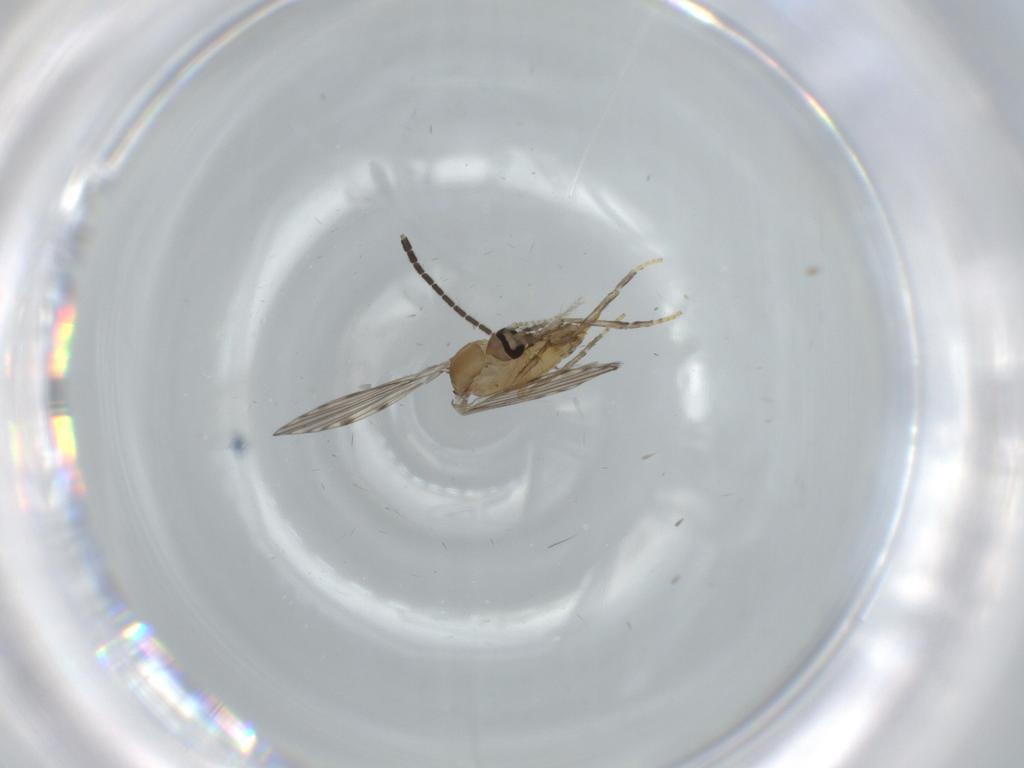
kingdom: Animalia
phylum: Arthropoda
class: Insecta
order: Diptera
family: Psychodidae
